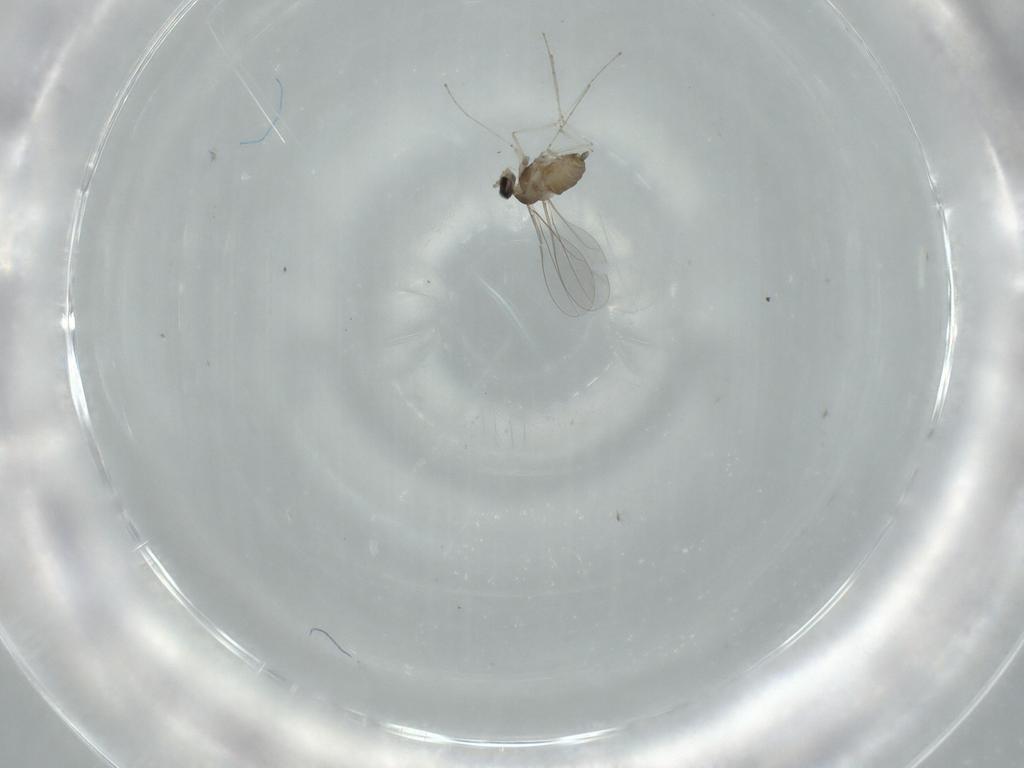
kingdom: Animalia
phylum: Arthropoda
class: Insecta
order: Diptera
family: Cecidomyiidae
